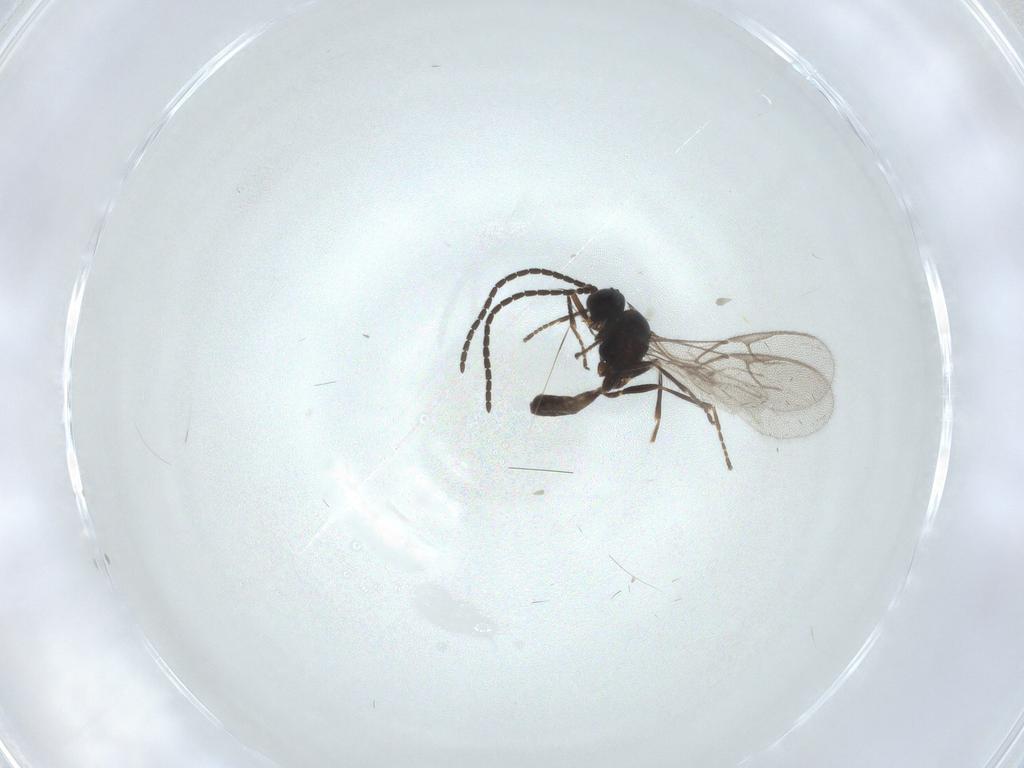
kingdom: Animalia
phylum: Arthropoda
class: Insecta
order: Hymenoptera
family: Braconidae
